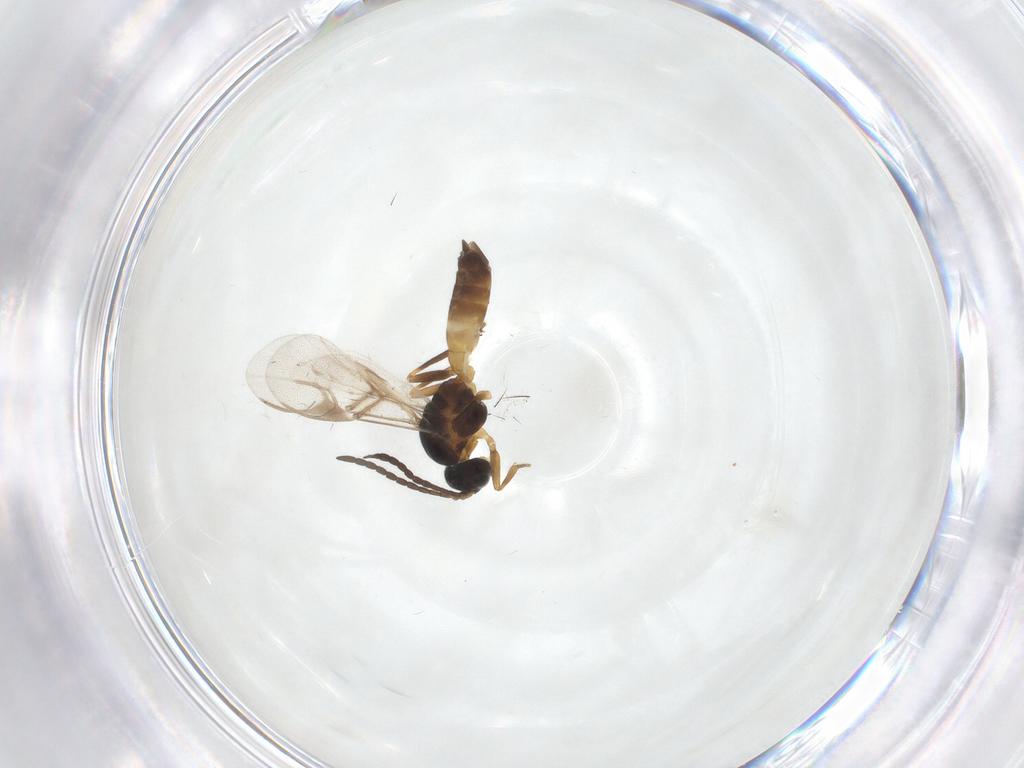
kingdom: Animalia
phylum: Arthropoda
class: Insecta
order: Hymenoptera
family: Braconidae
